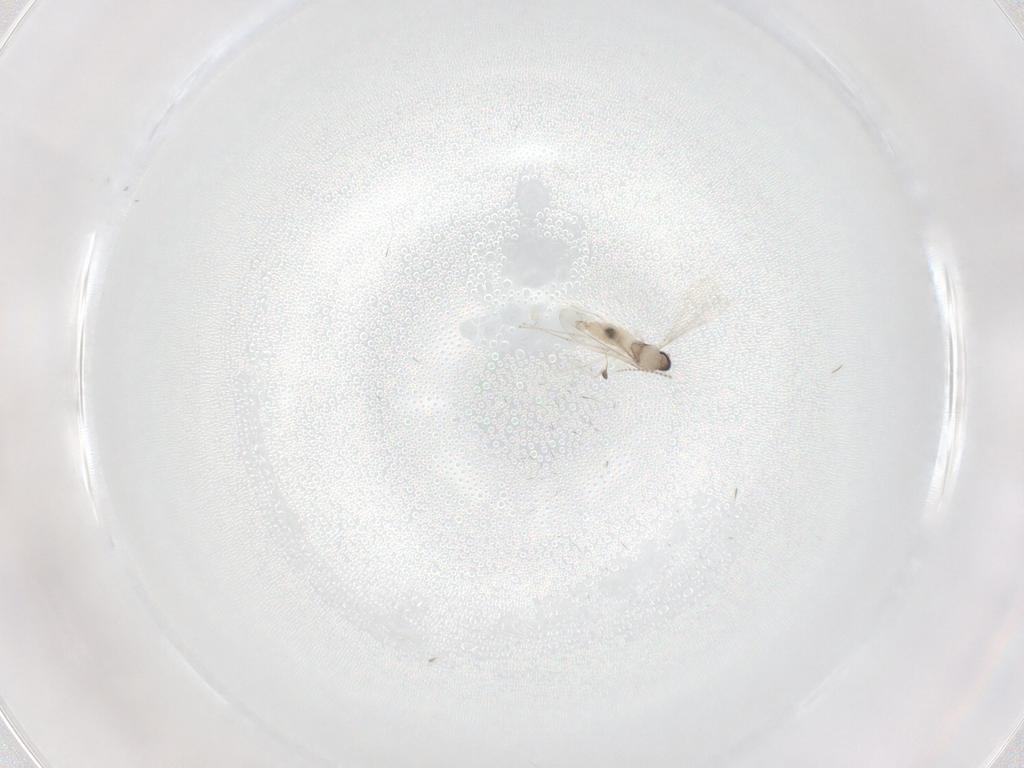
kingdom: Animalia
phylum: Arthropoda
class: Insecta
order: Diptera
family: Cecidomyiidae
